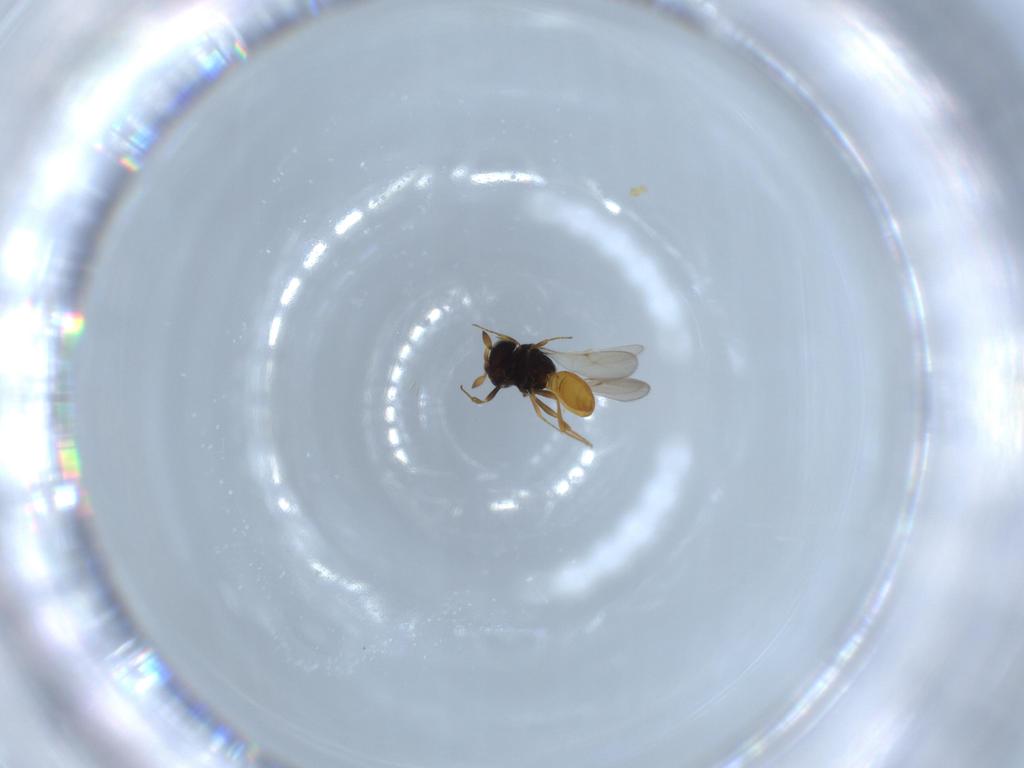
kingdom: Animalia
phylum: Arthropoda
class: Insecta
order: Hymenoptera
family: Scelionidae
